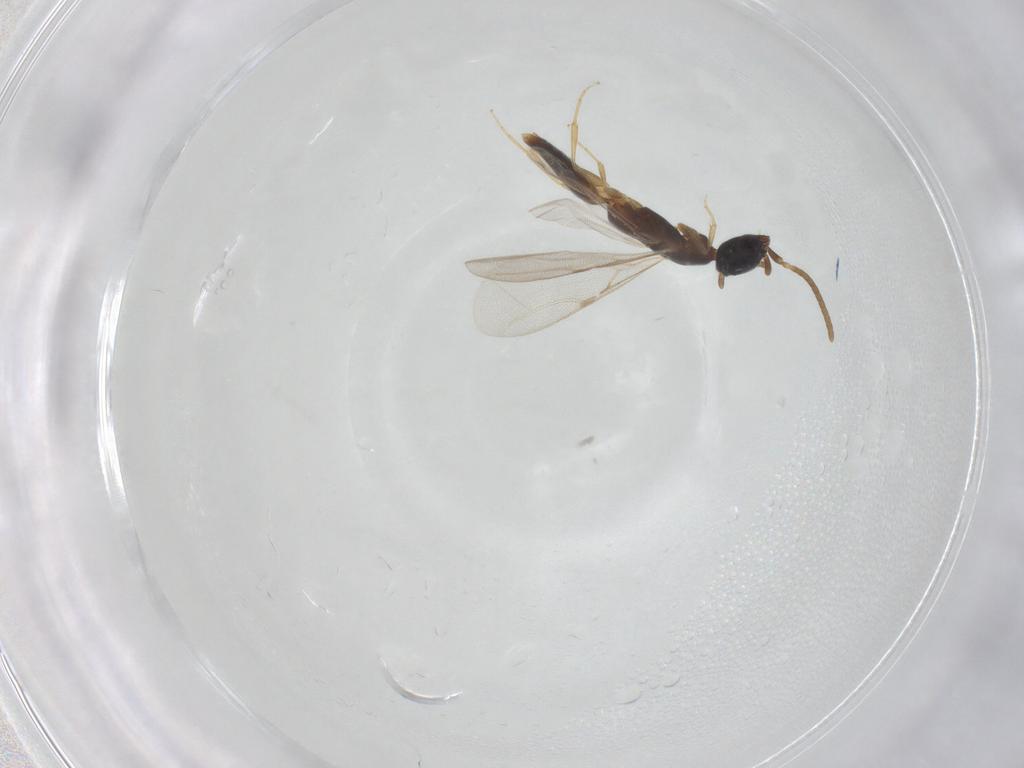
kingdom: Animalia
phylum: Arthropoda
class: Insecta
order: Hymenoptera
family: Bethylidae
